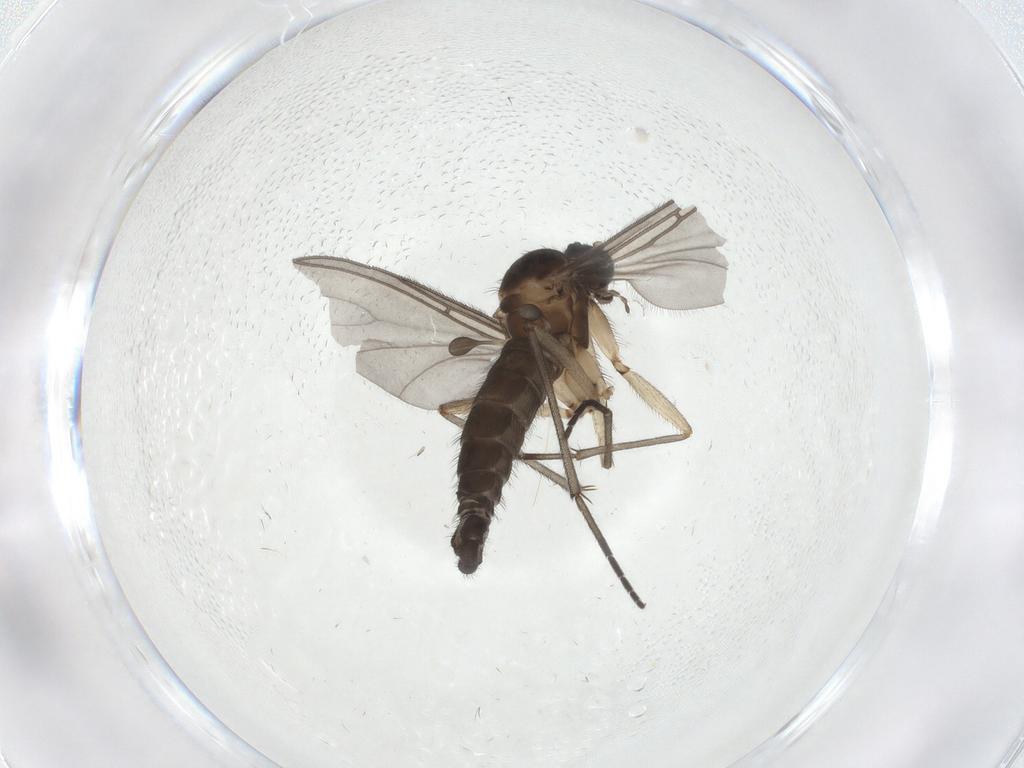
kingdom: Animalia
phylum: Arthropoda
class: Insecta
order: Diptera
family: Sciaridae
